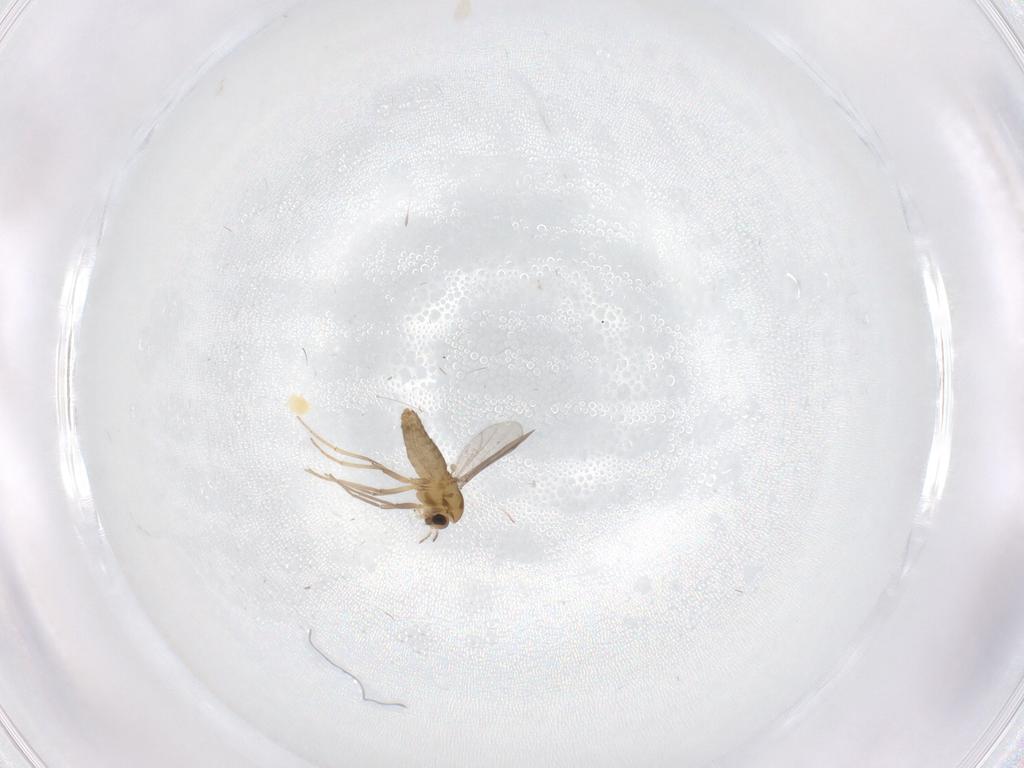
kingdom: Animalia
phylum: Arthropoda
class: Insecta
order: Diptera
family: Chironomidae
